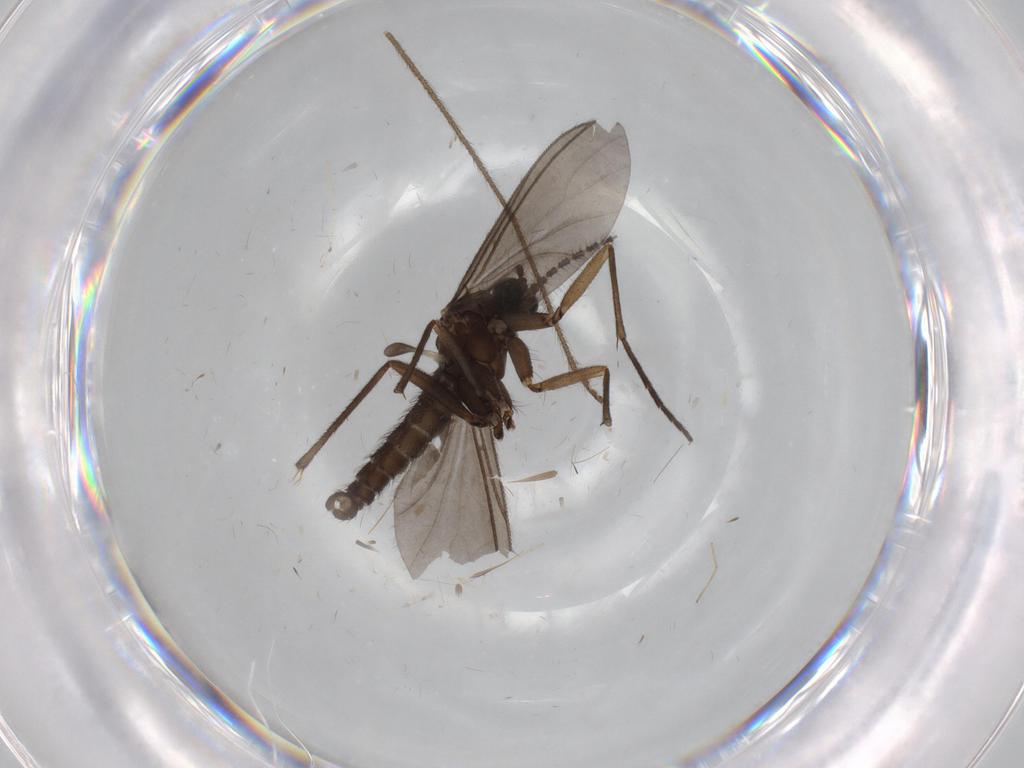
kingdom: Animalia
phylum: Arthropoda
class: Insecta
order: Diptera
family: Chironomidae
